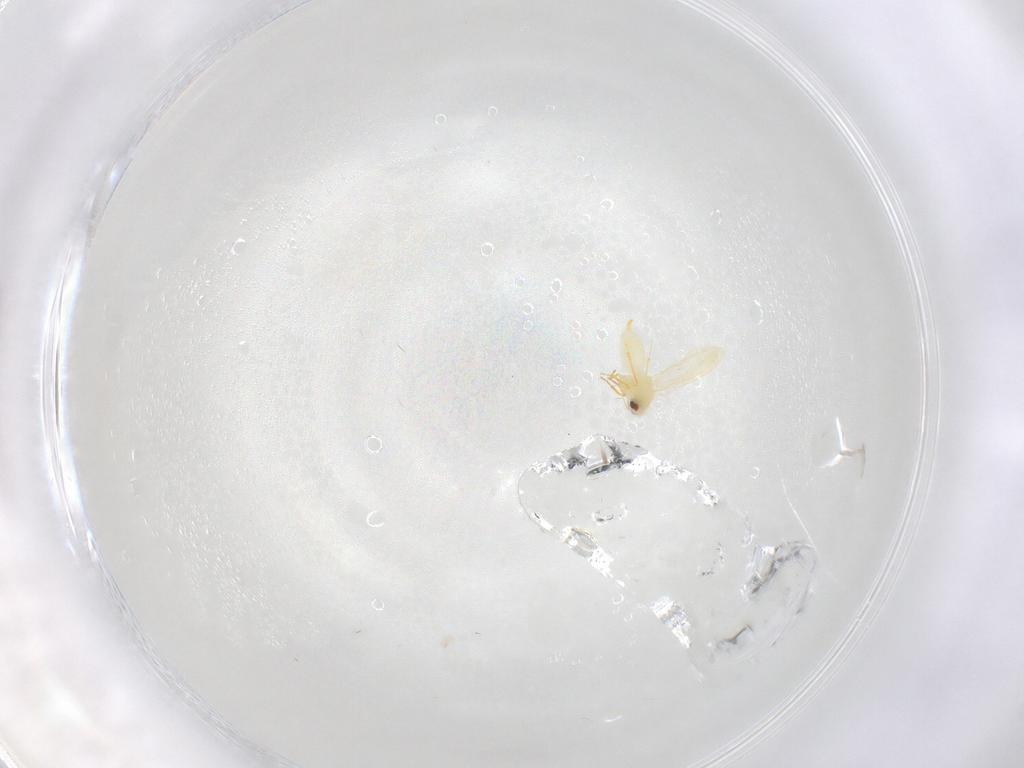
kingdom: Animalia
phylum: Arthropoda
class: Insecta
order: Hemiptera
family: Aleyrodidae
